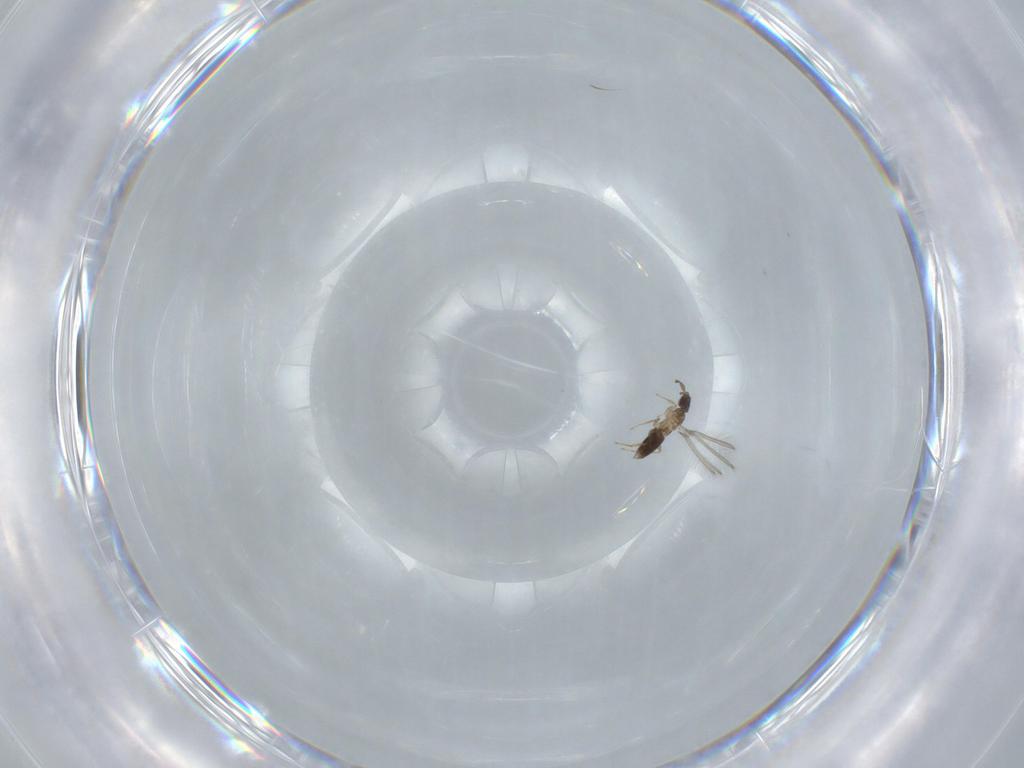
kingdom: Animalia
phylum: Arthropoda
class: Insecta
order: Hymenoptera
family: Mymaridae
